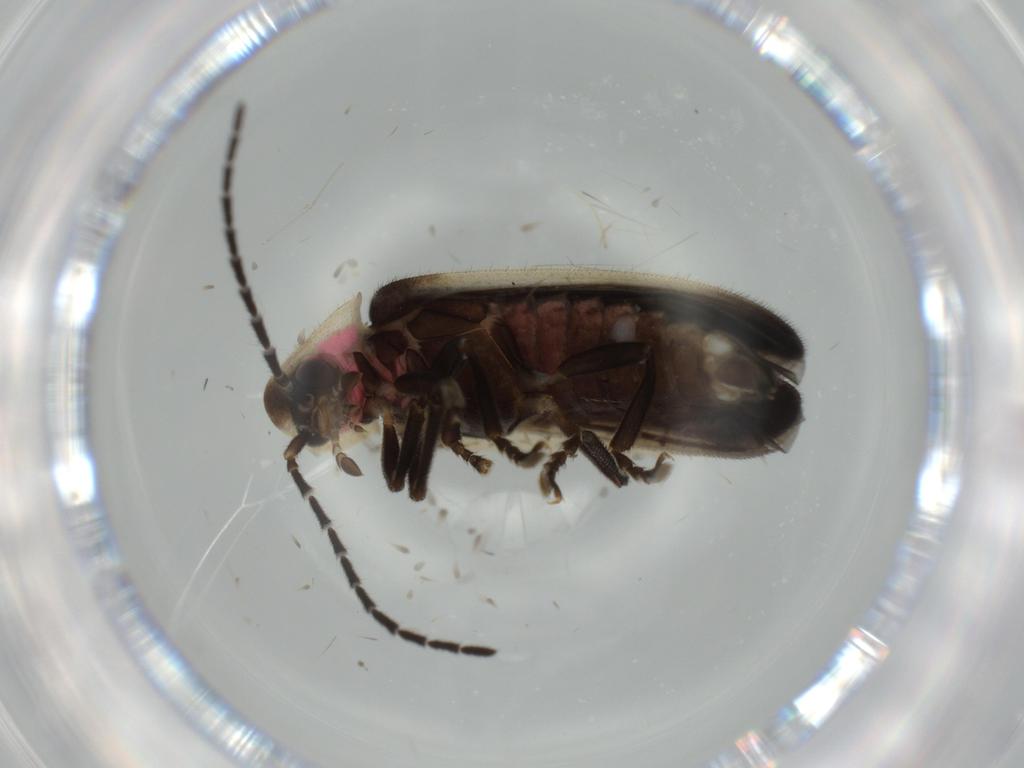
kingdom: Animalia
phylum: Arthropoda
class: Insecta
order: Coleoptera
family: Lampyridae
